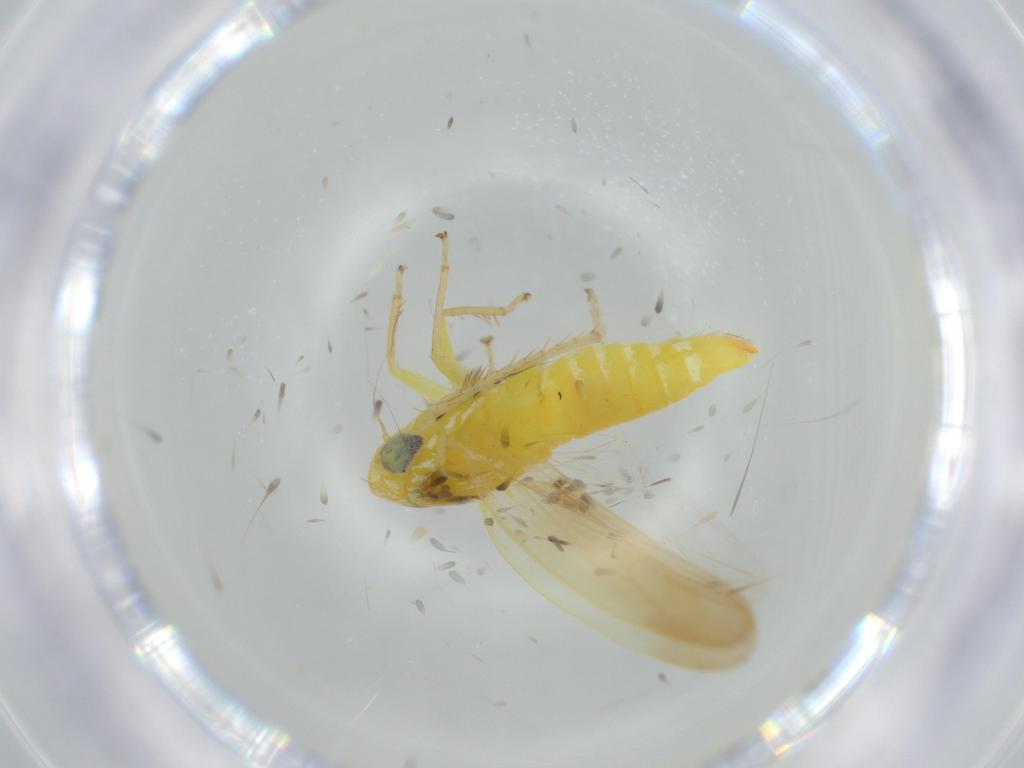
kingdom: Animalia
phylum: Arthropoda
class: Insecta
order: Hemiptera
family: Cicadellidae
